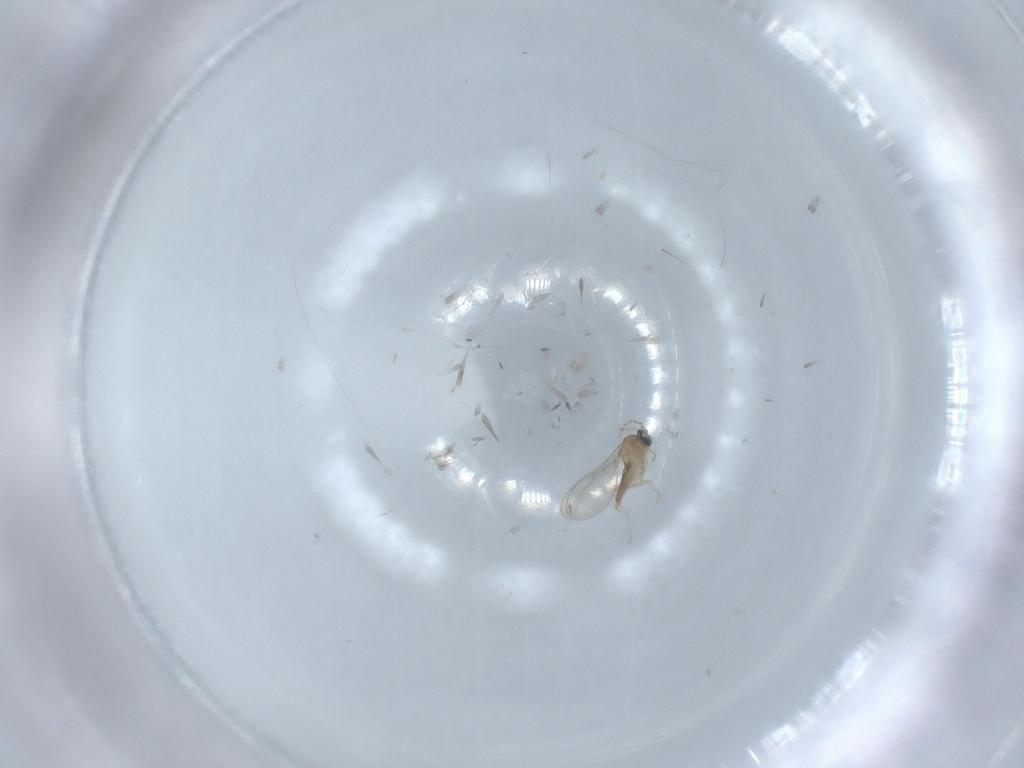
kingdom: Animalia
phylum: Arthropoda
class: Insecta
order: Diptera
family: Cecidomyiidae
